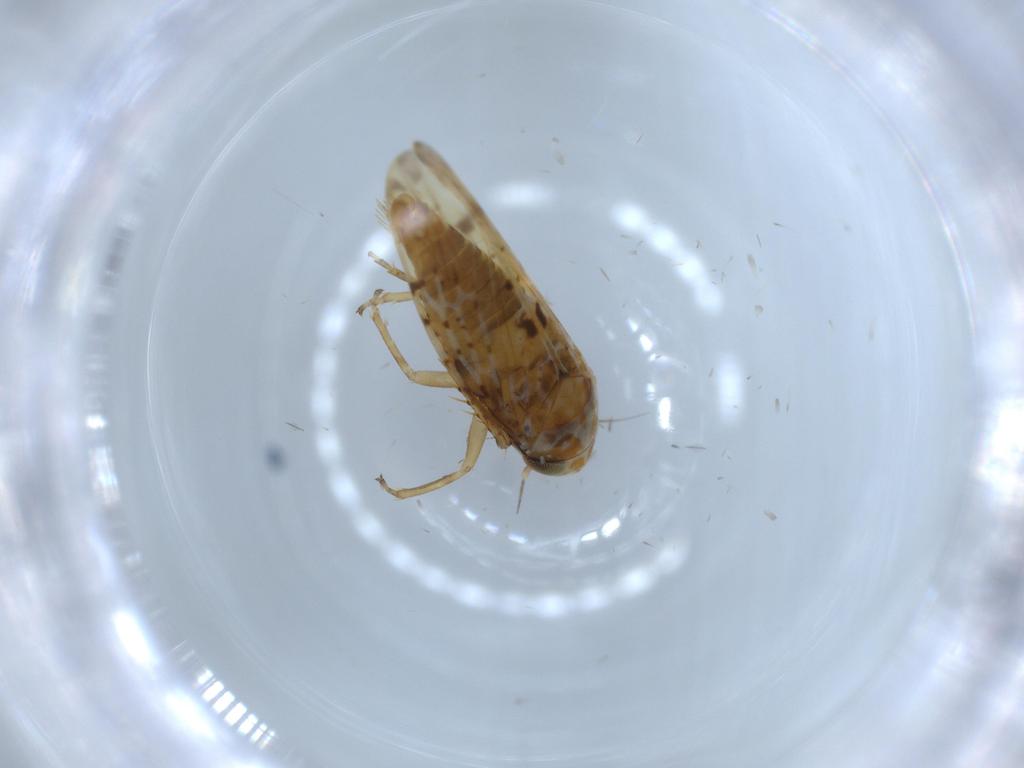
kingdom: Animalia
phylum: Arthropoda
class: Insecta
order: Hemiptera
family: Cicadellidae
